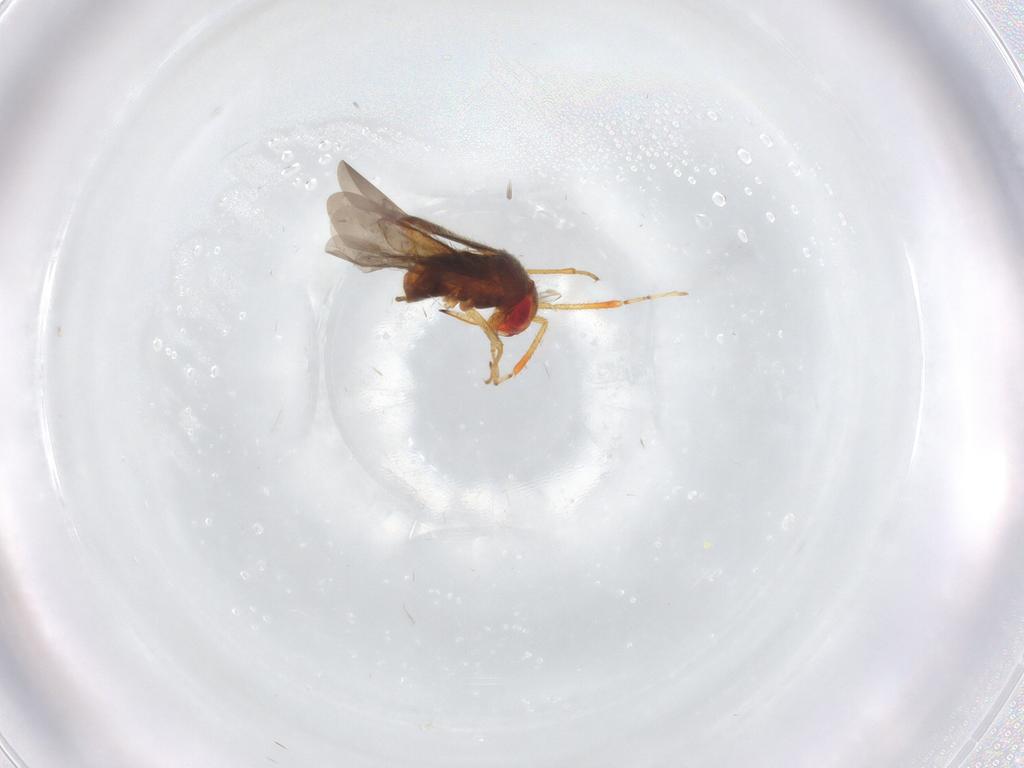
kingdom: Animalia
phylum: Arthropoda
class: Insecta
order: Hemiptera
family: Miridae
